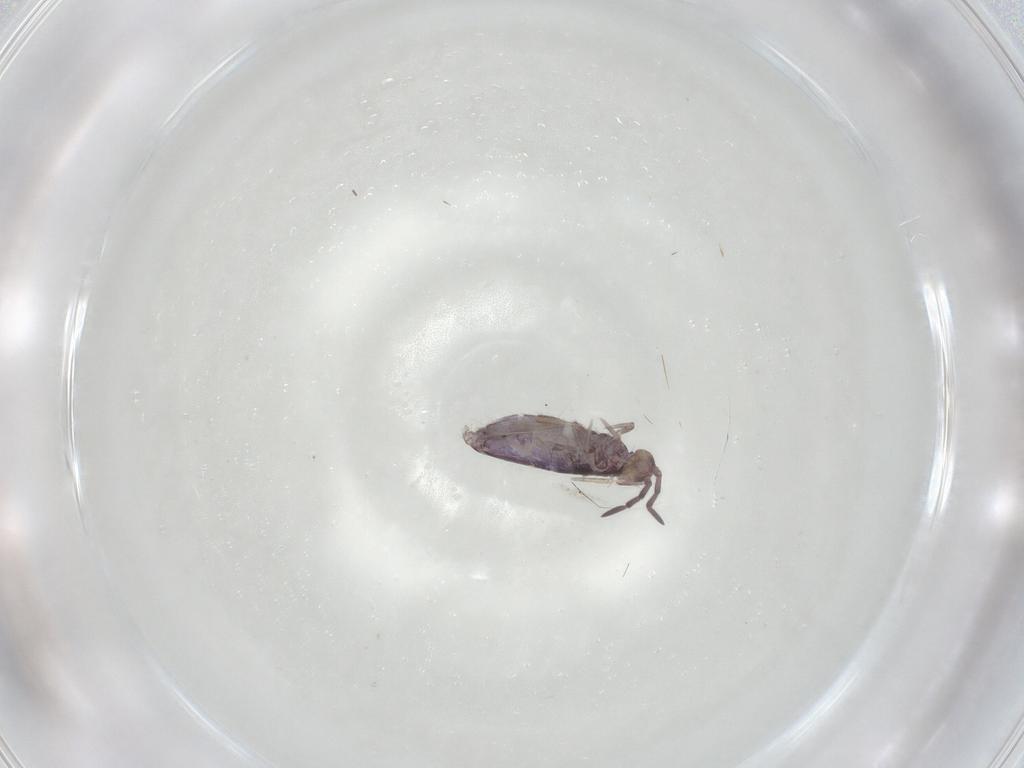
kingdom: Animalia
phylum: Arthropoda
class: Collembola
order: Entomobryomorpha
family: Entomobryidae
